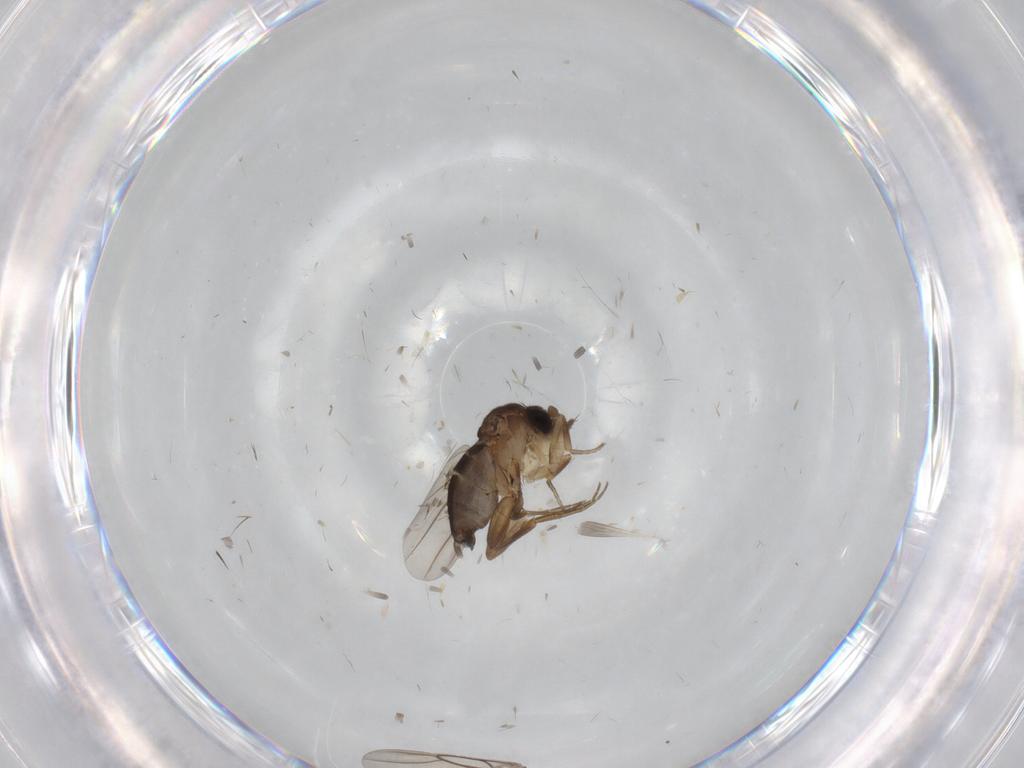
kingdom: Animalia
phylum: Arthropoda
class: Insecta
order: Diptera
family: Phoridae
